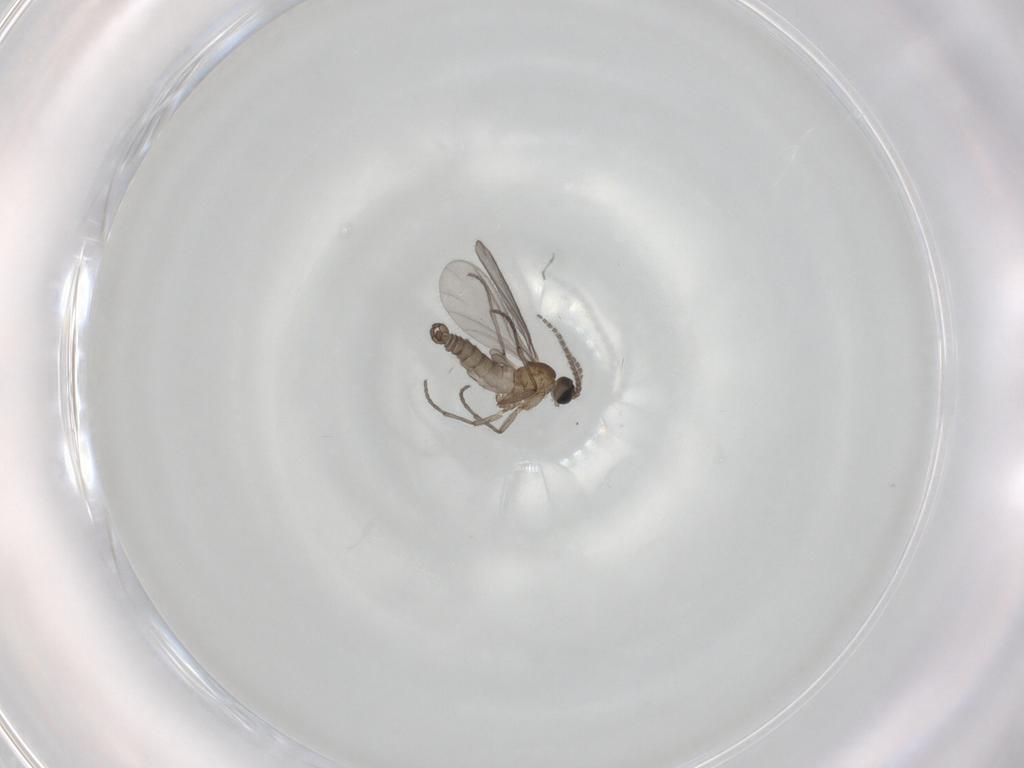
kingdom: Animalia
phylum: Arthropoda
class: Insecta
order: Diptera
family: Sciaridae
